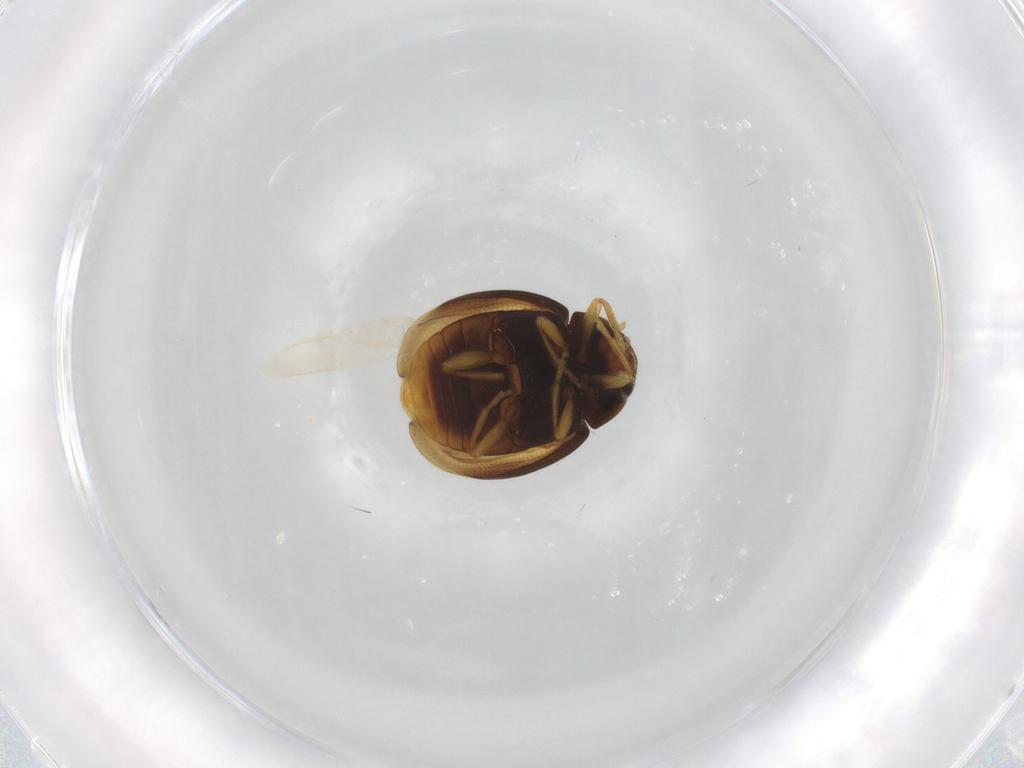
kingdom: Animalia
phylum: Arthropoda
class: Insecta
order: Coleoptera
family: Coccinellidae
